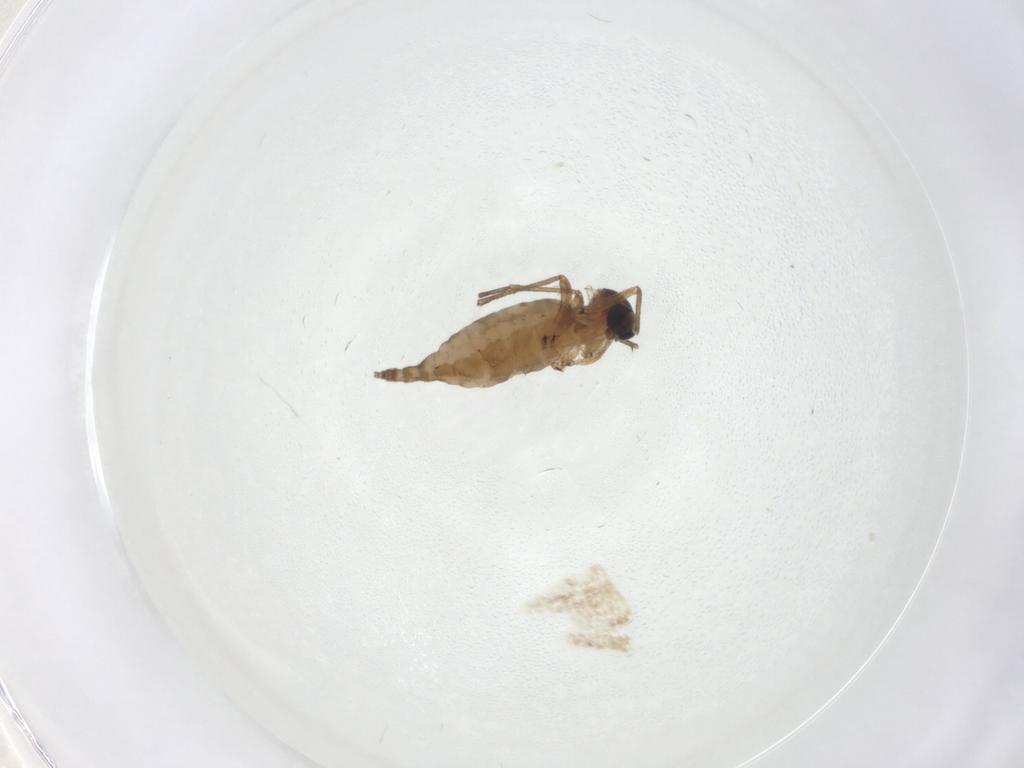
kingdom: Animalia
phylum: Arthropoda
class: Insecta
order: Diptera
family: Sciaridae
